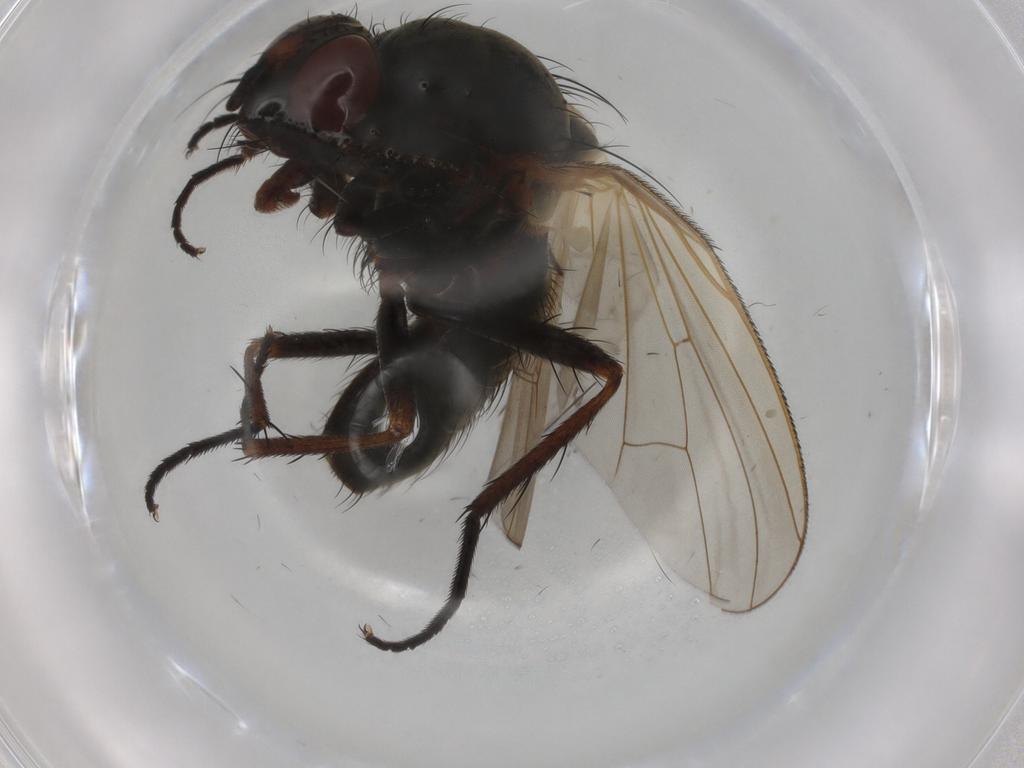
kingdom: Animalia
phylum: Arthropoda
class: Insecta
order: Diptera
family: Anthomyiidae
